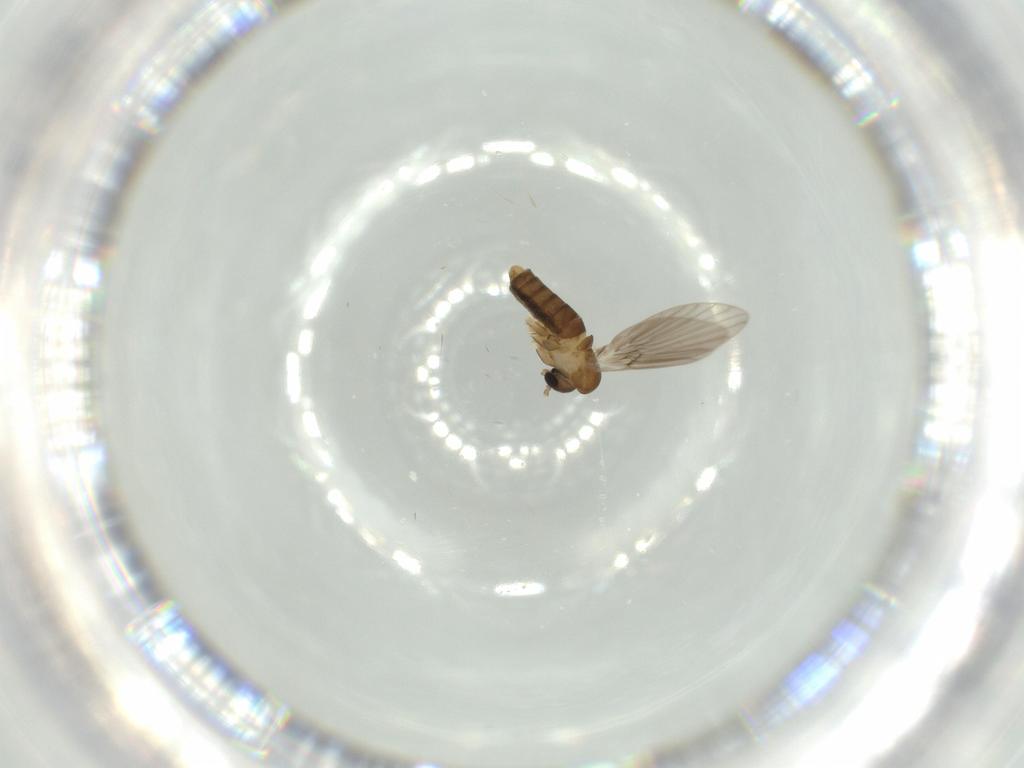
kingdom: Animalia
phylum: Arthropoda
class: Insecta
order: Diptera
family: Psychodidae
